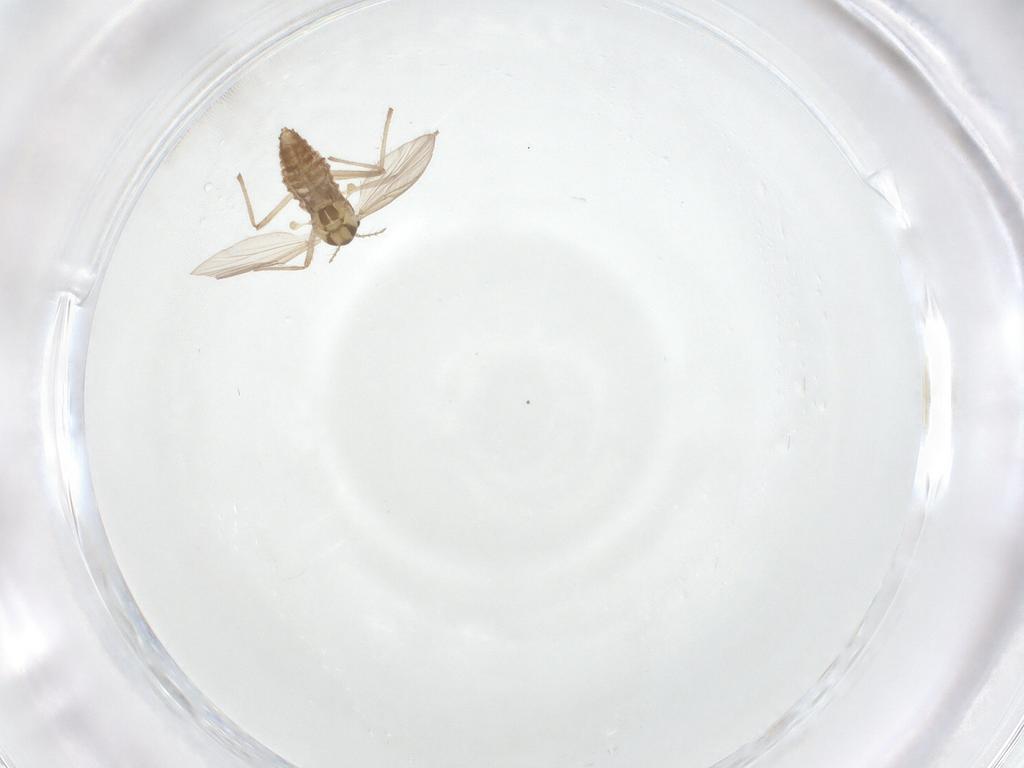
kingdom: Animalia
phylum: Arthropoda
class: Insecta
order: Diptera
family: Chironomidae
